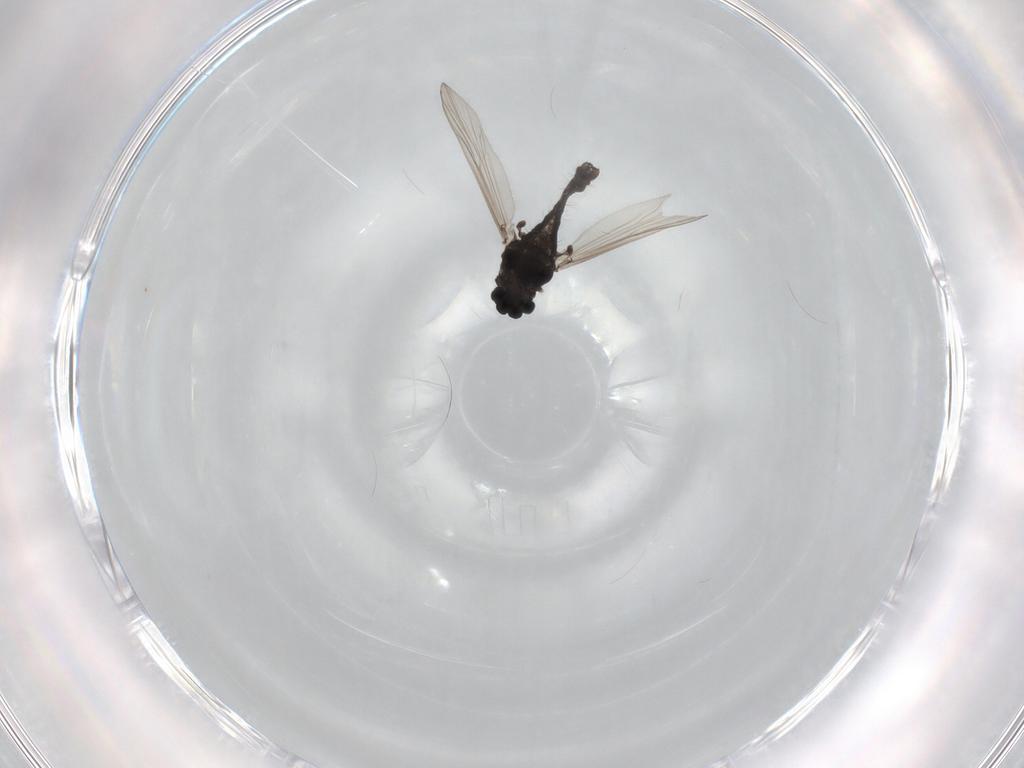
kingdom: Animalia
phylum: Arthropoda
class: Insecta
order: Diptera
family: Chironomidae
